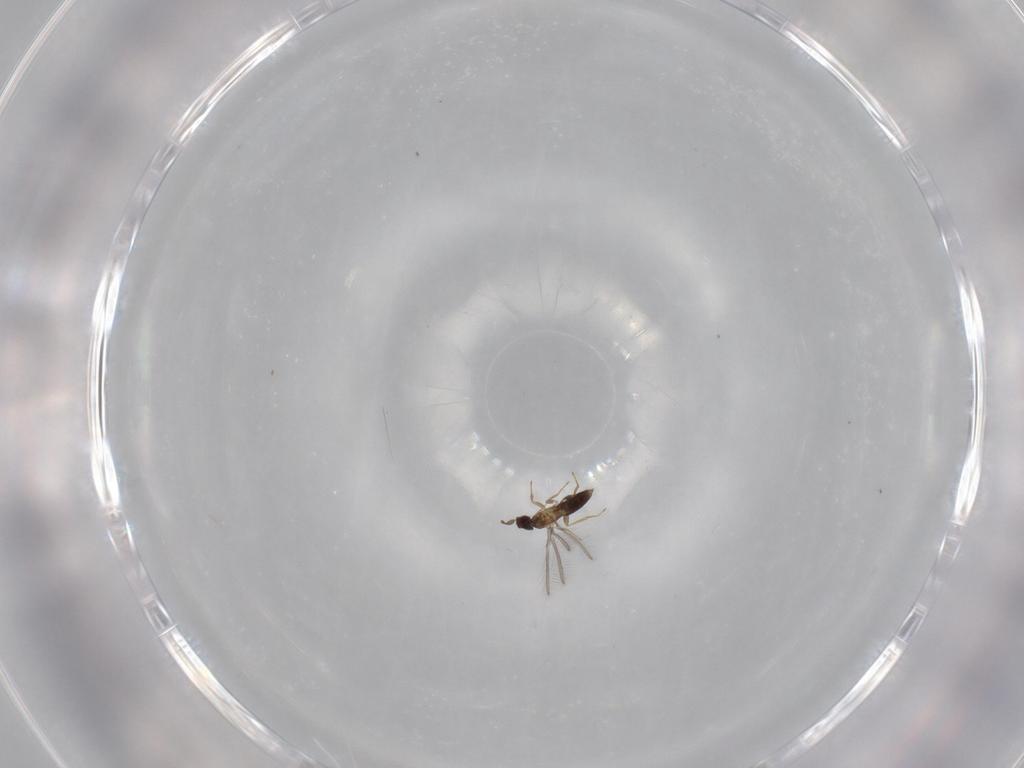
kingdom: Animalia
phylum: Arthropoda
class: Insecta
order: Hymenoptera
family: Mymaridae
